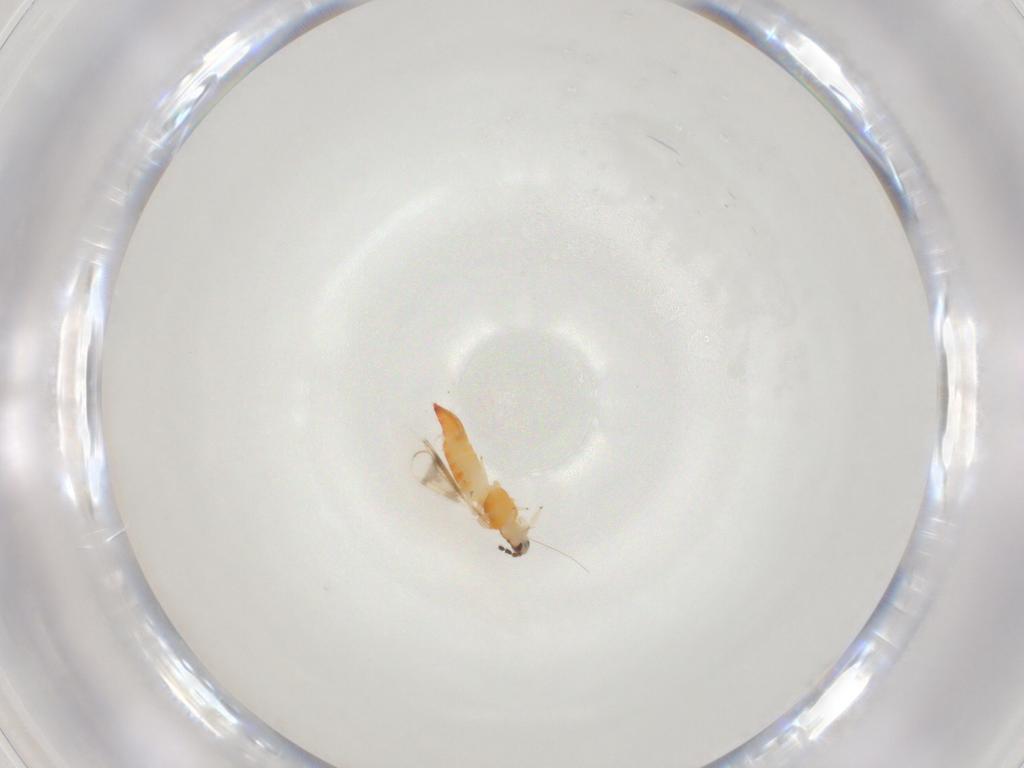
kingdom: Animalia
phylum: Arthropoda
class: Insecta
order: Thysanoptera
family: Aeolothripidae
